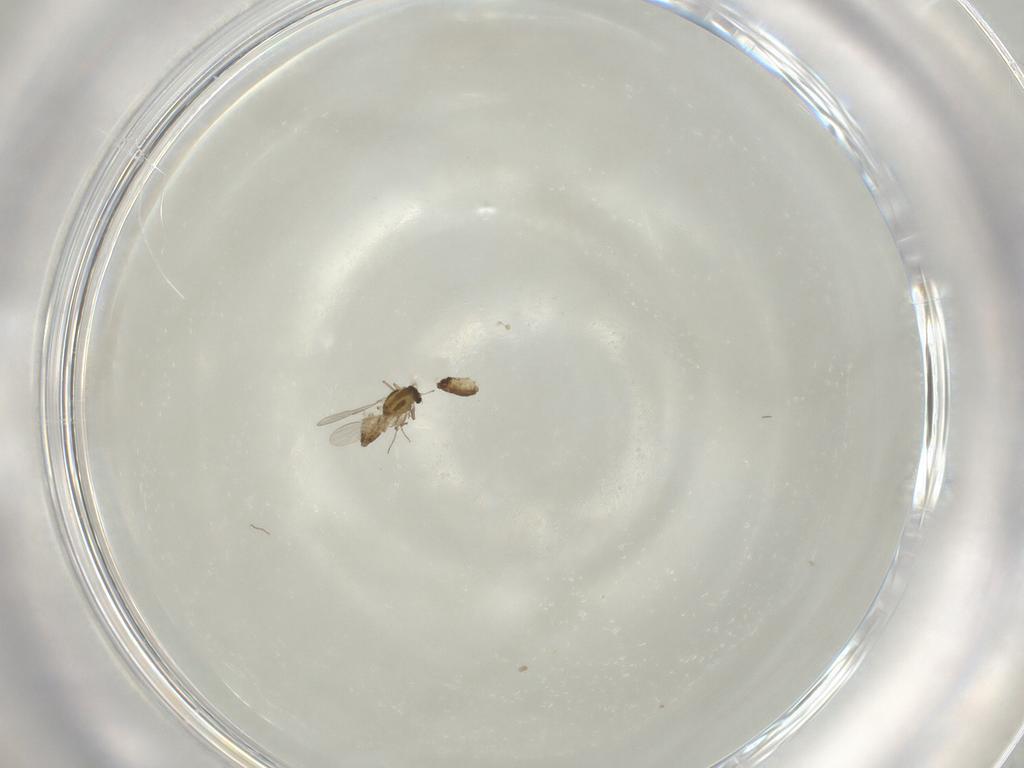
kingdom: Animalia
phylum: Arthropoda
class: Insecta
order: Diptera
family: Chironomidae
